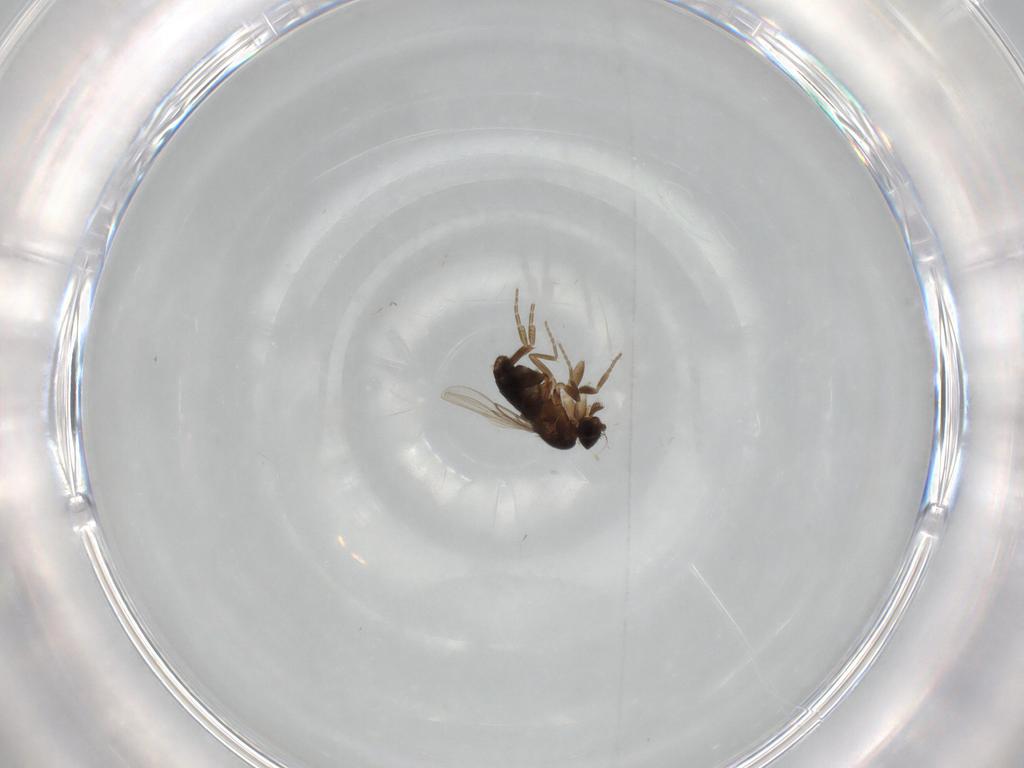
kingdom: Animalia
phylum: Arthropoda
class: Insecta
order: Diptera
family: Phoridae
